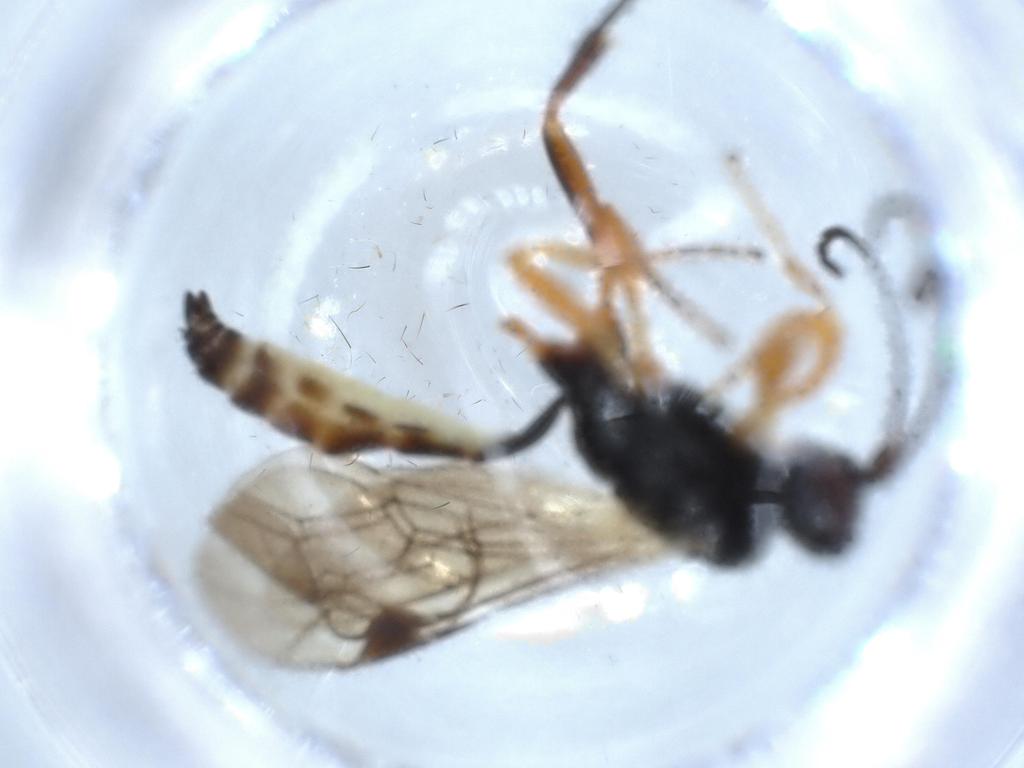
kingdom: Animalia
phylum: Arthropoda
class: Insecta
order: Hymenoptera
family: Ichneumonidae
